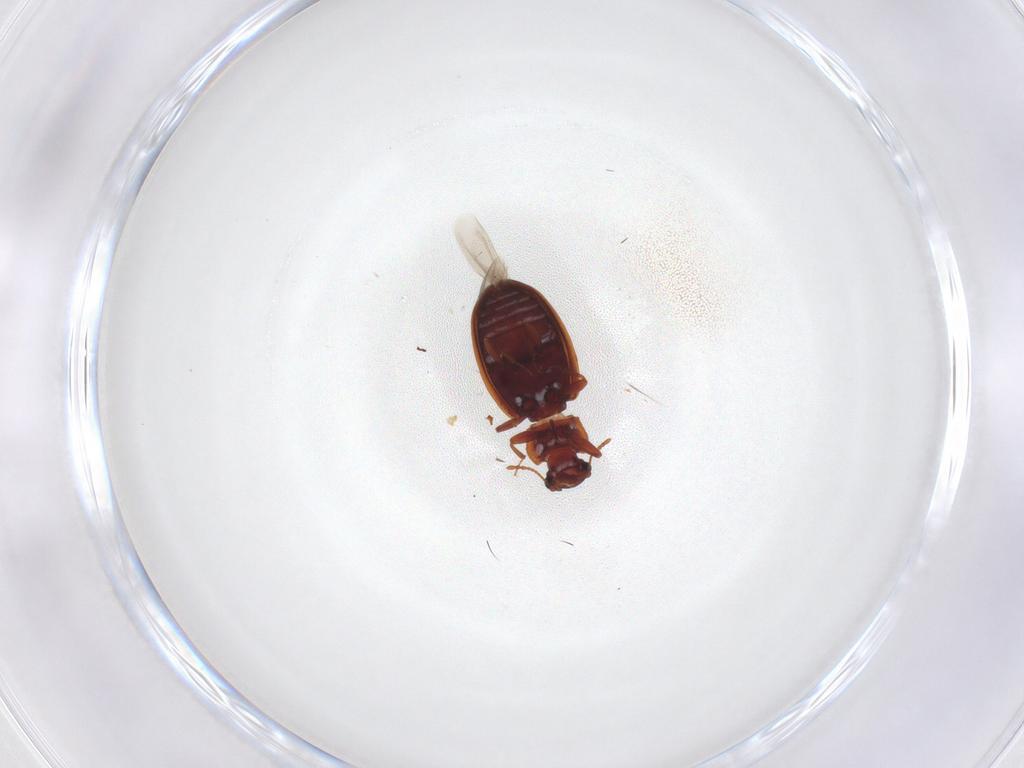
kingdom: Animalia
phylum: Arthropoda
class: Insecta
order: Coleoptera
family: Latridiidae
